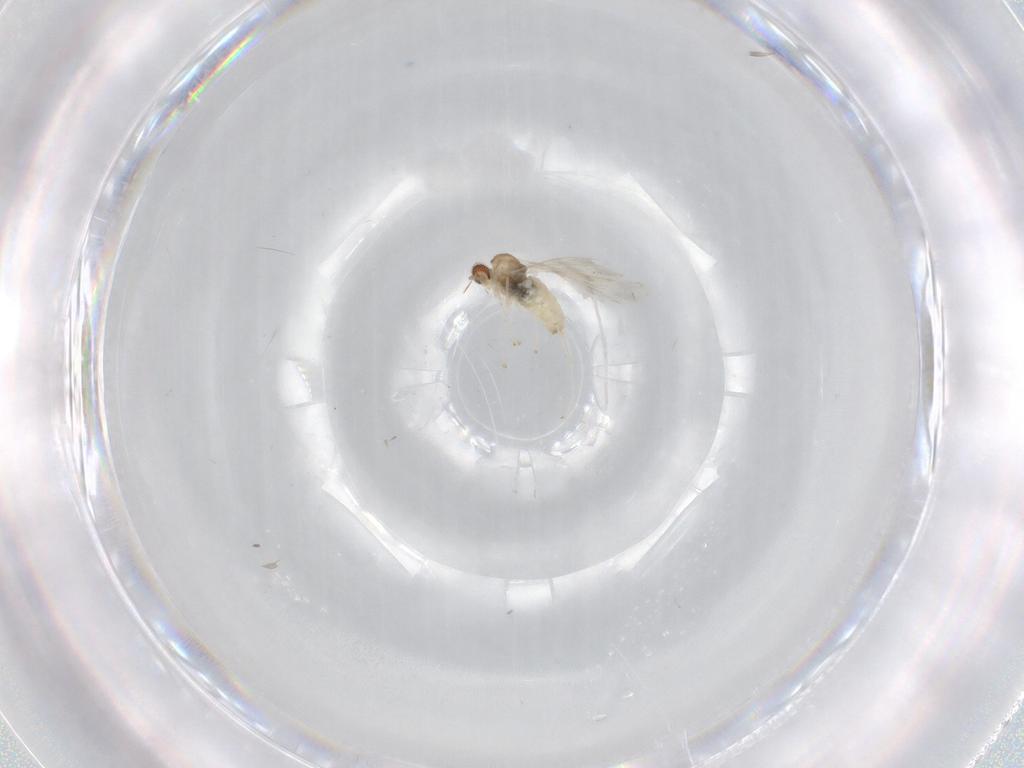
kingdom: Animalia
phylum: Arthropoda
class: Insecta
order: Diptera
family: Cecidomyiidae
